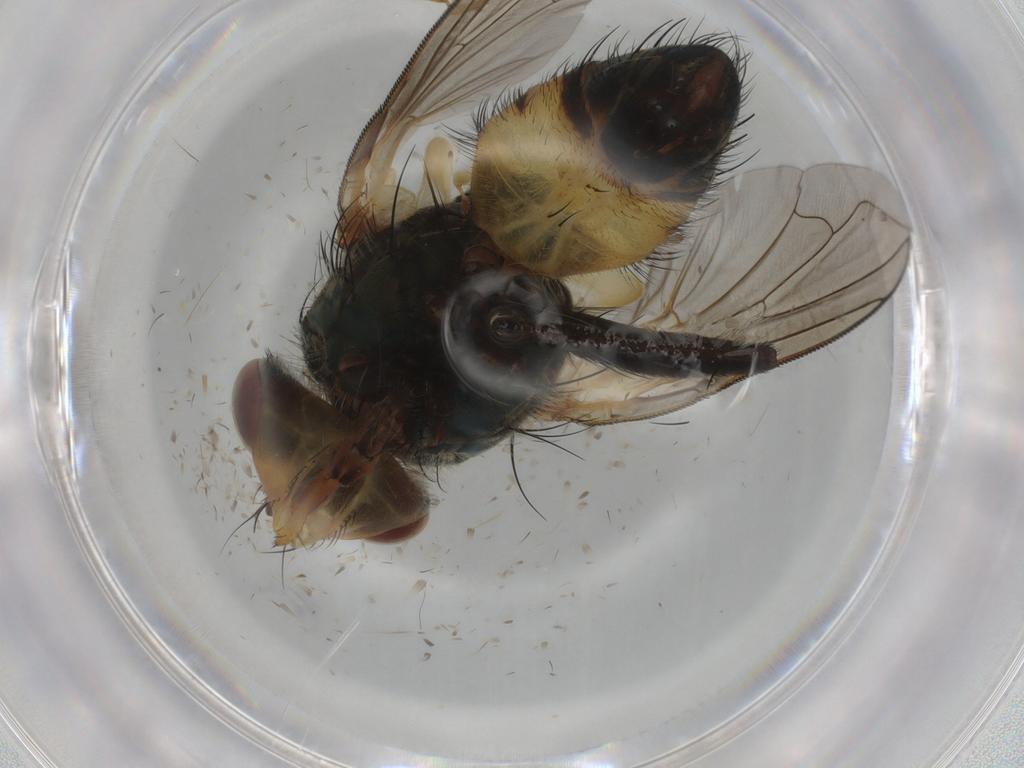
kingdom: Animalia
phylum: Arthropoda
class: Insecta
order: Diptera
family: Calliphoridae
